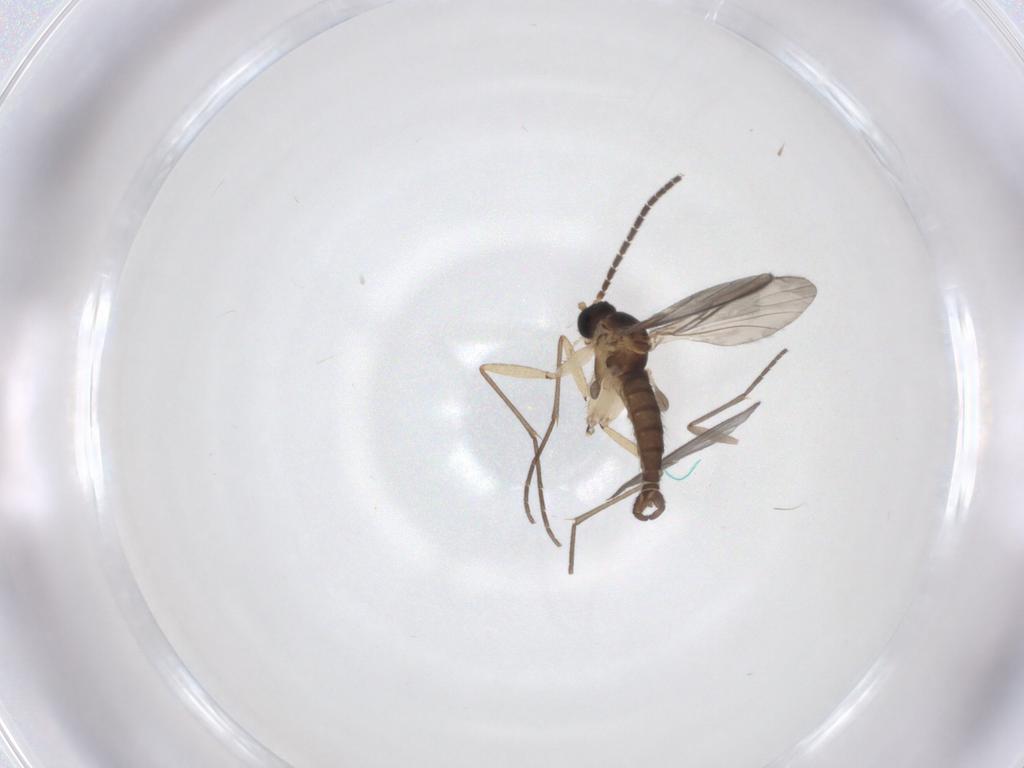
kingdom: Animalia
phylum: Arthropoda
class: Insecta
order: Diptera
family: Sciaridae
